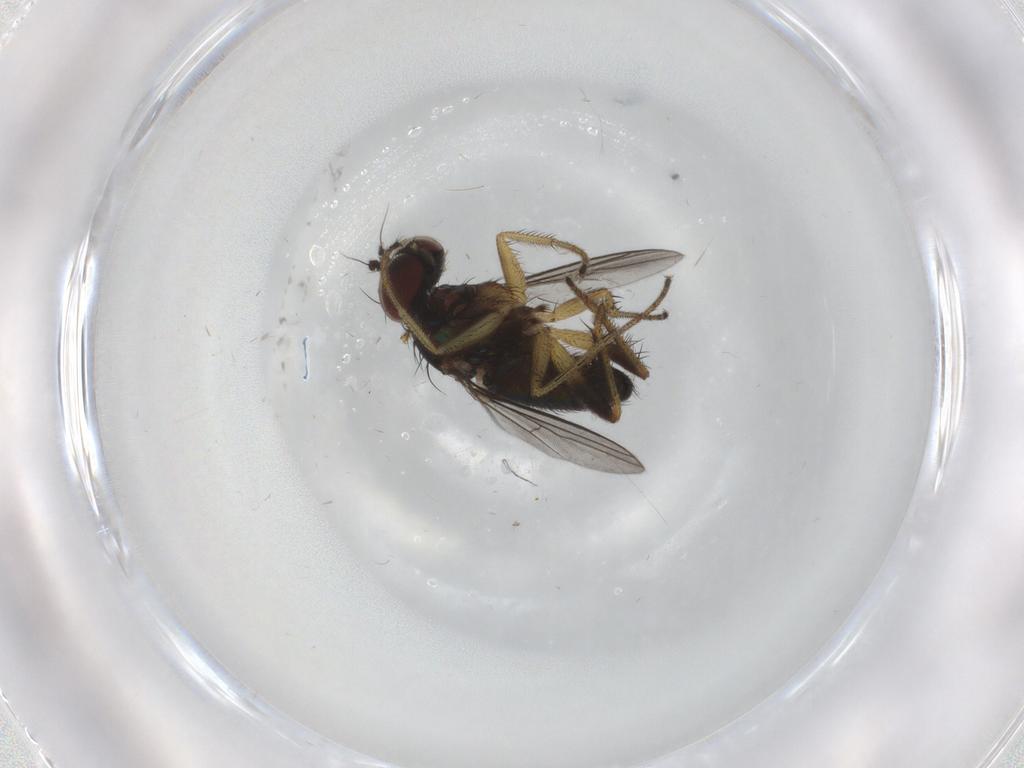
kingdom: Animalia
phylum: Arthropoda
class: Insecta
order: Diptera
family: Dolichopodidae
